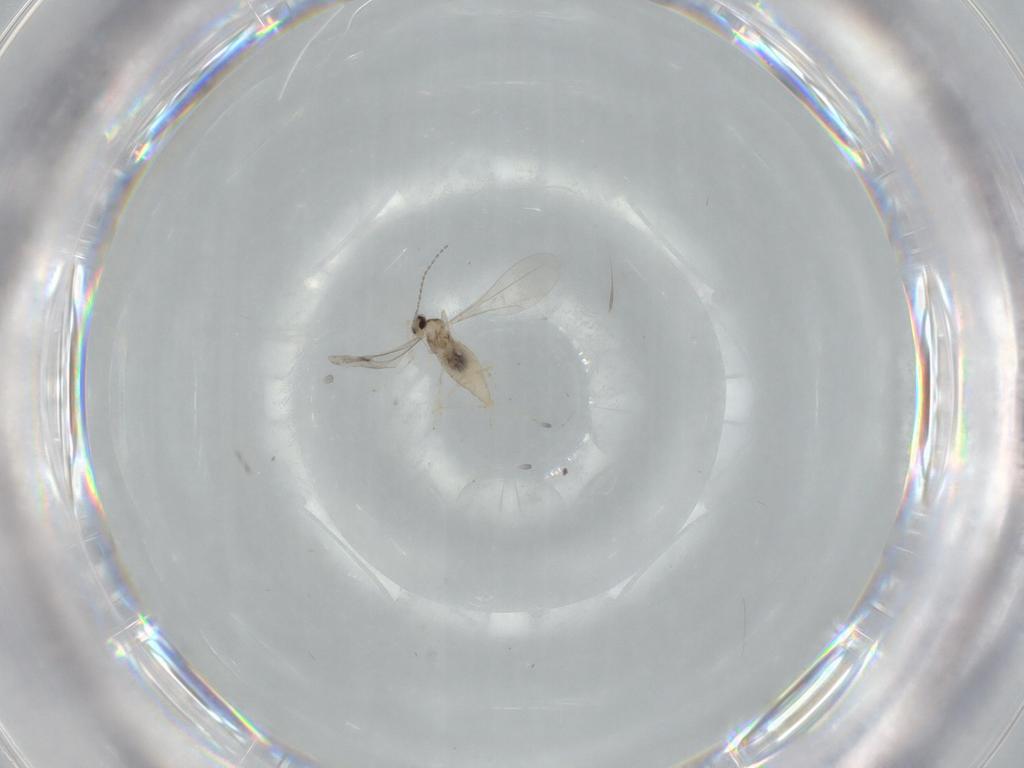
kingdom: Animalia
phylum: Arthropoda
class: Insecta
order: Diptera
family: Cecidomyiidae
